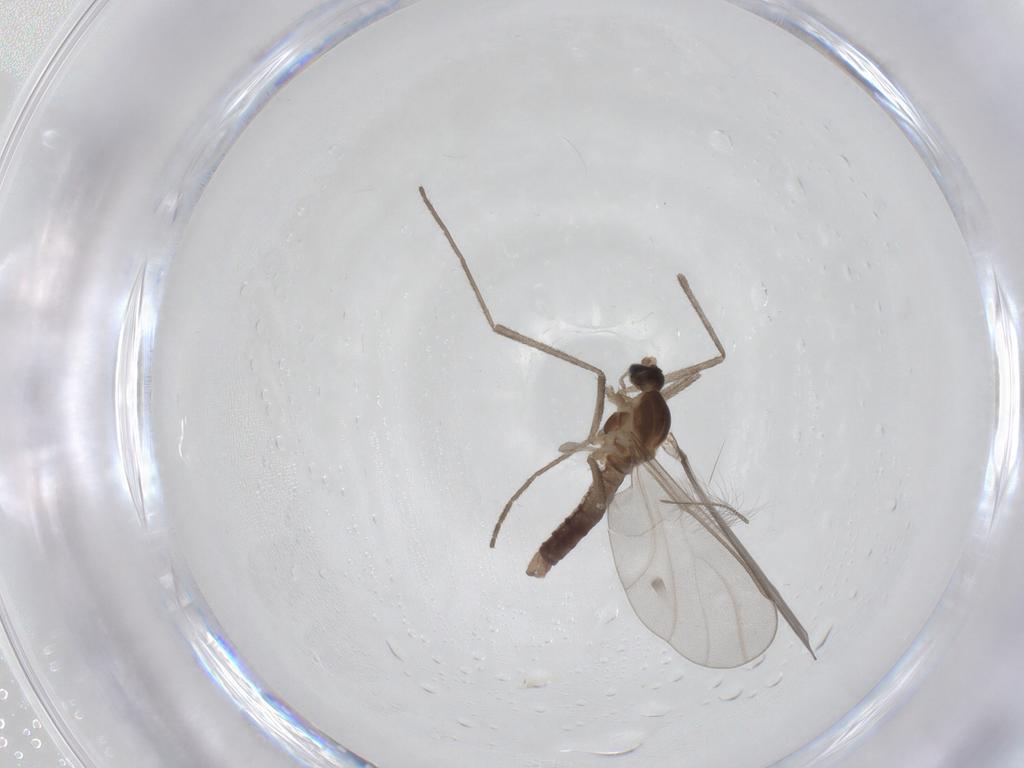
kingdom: Animalia
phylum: Arthropoda
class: Insecta
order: Diptera
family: Cecidomyiidae
